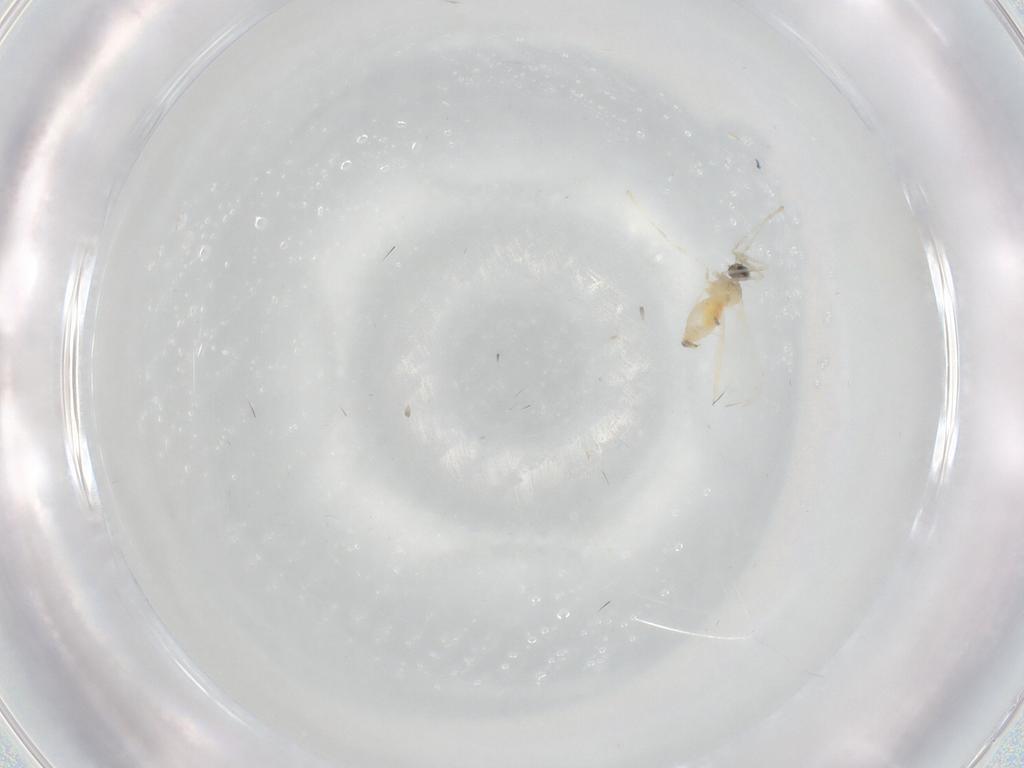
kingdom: Animalia
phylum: Arthropoda
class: Insecta
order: Diptera
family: Cecidomyiidae
